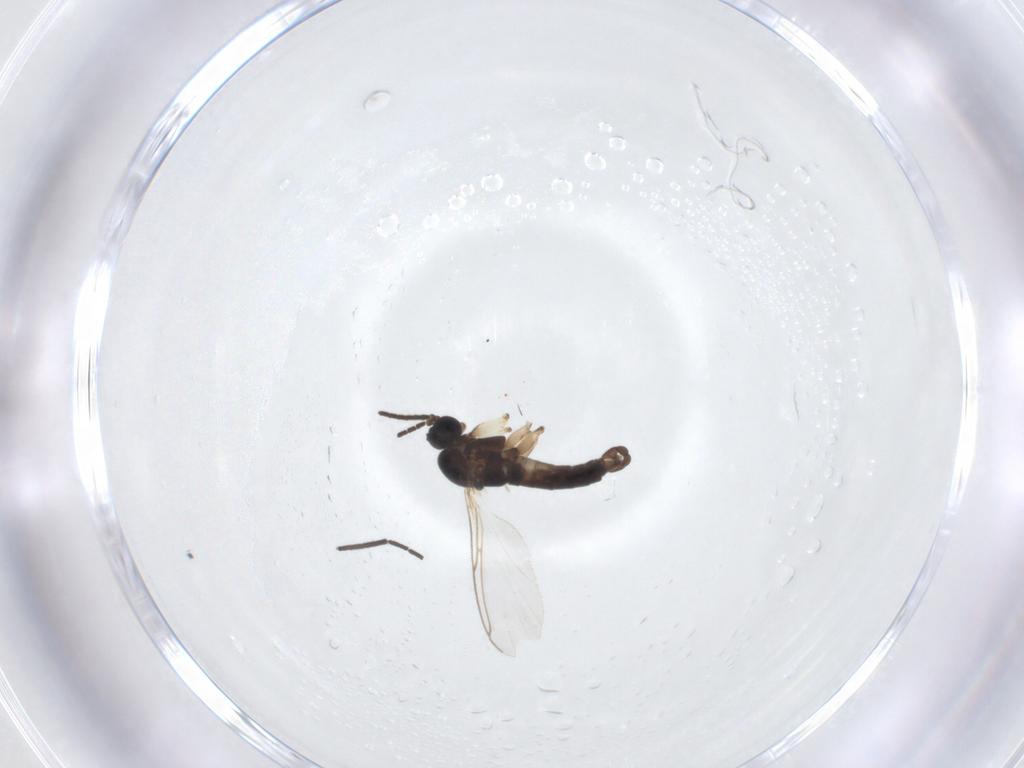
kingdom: Animalia
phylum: Arthropoda
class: Insecta
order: Diptera
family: Sciaridae
